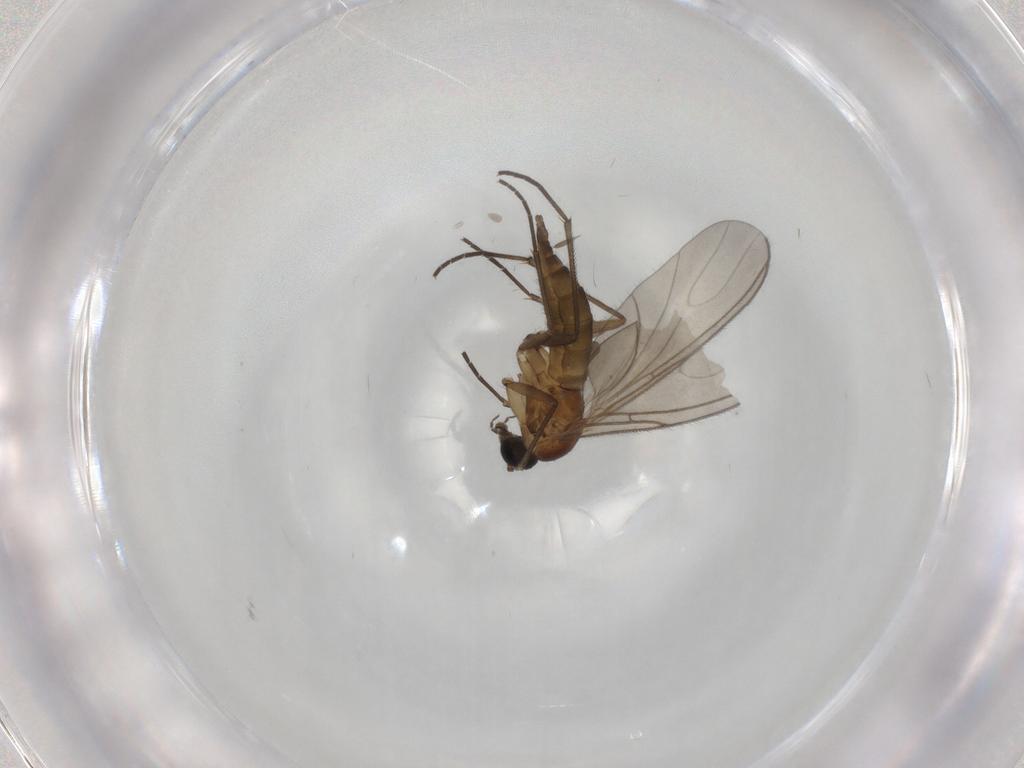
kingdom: Animalia
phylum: Arthropoda
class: Insecta
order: Diptera
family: Sciaridae
